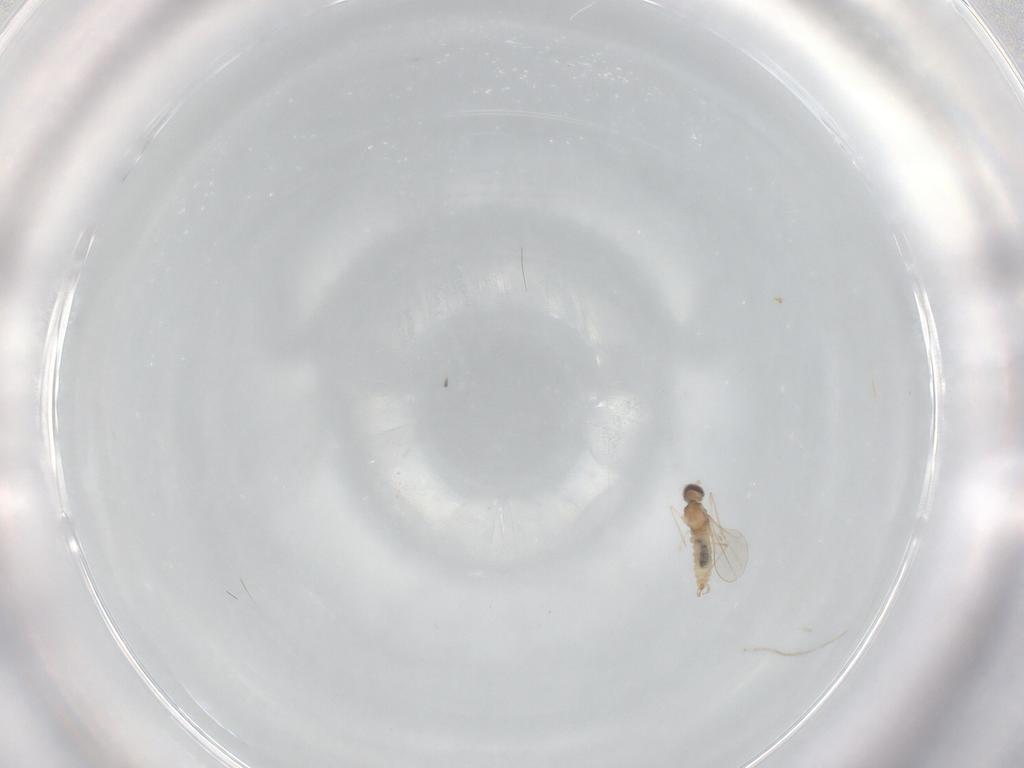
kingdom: Animalia
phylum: Arthropoda
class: Insecta
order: Diptera
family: Phoridae
